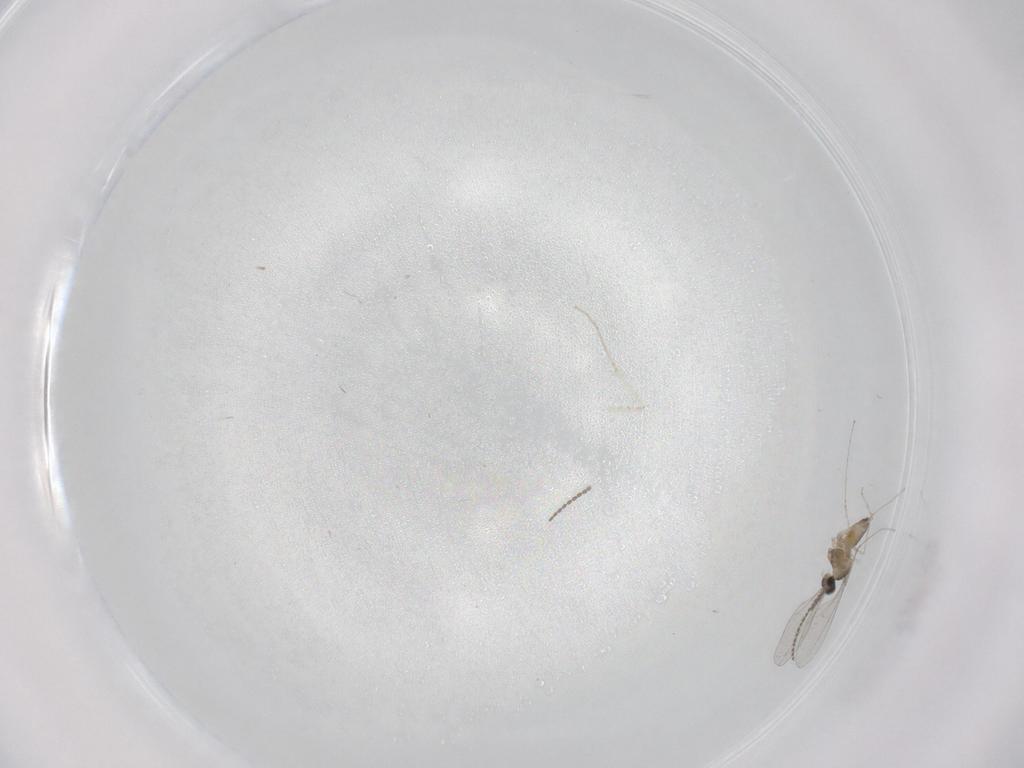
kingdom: Animalia
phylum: Arthropoda
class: Insecta
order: Diptera
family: Cecidomyiidae
